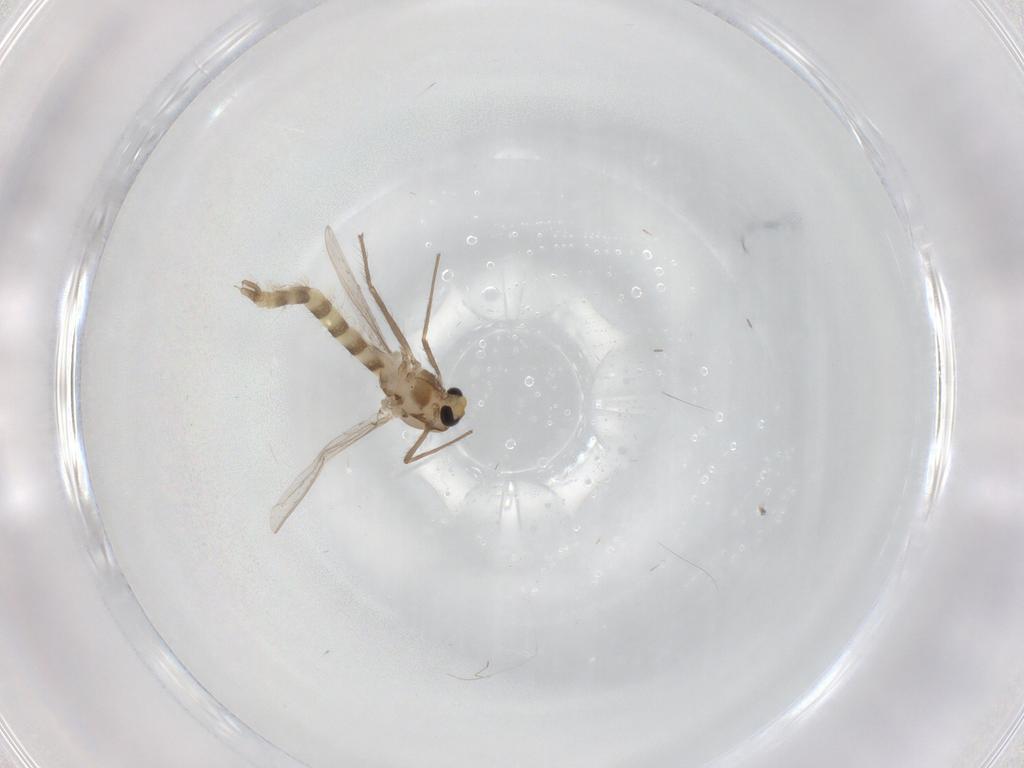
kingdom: Animalia
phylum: Arthropoda
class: Insecta
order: Diptera
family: Chironomidae
